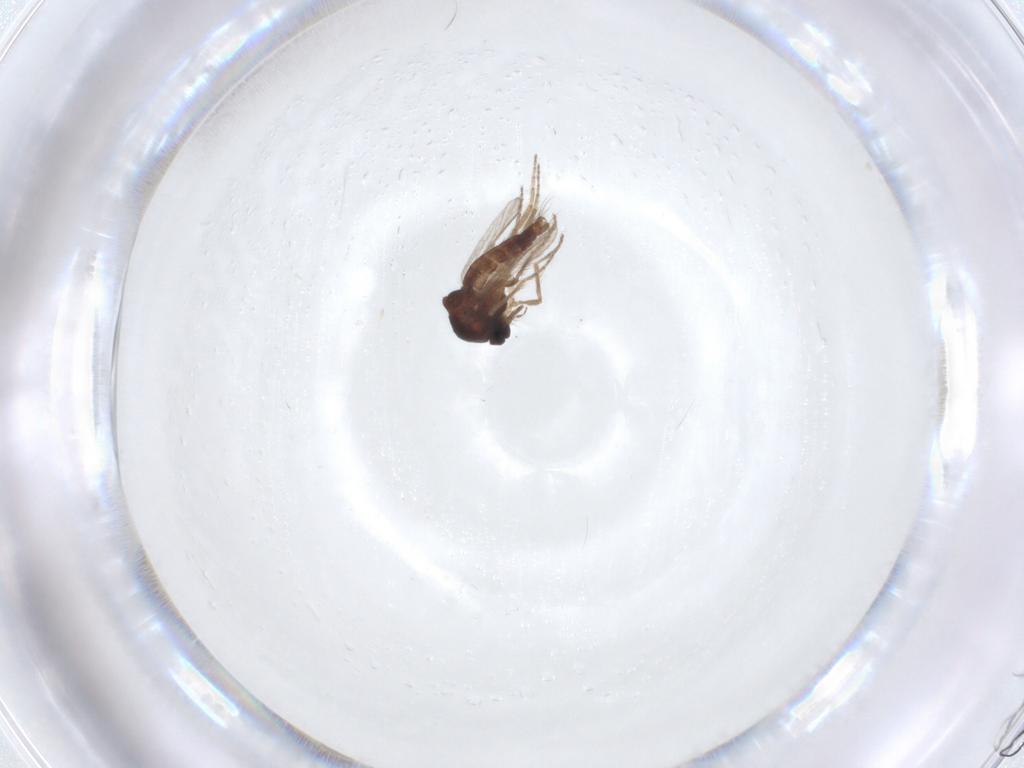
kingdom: Animalia
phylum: Arthropoda
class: Insecta
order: Diptera
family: Ceratopogonidae
